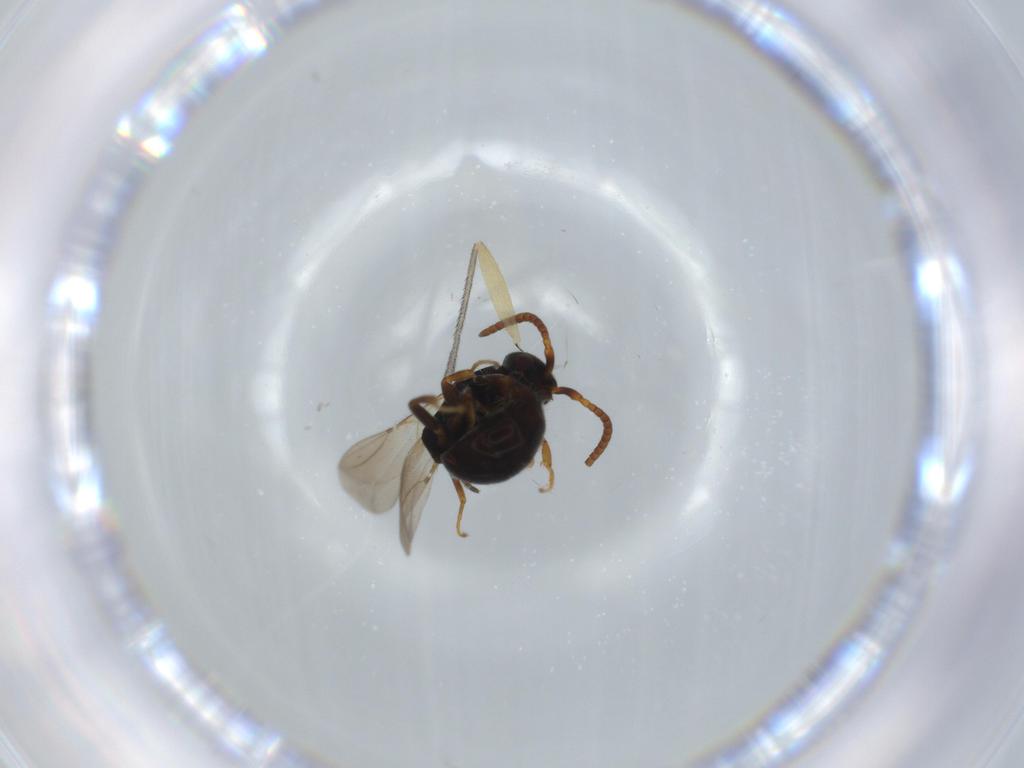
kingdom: Animalia
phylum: Arthropoda
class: Insecta
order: Hymenoptera
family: Bethylidae
